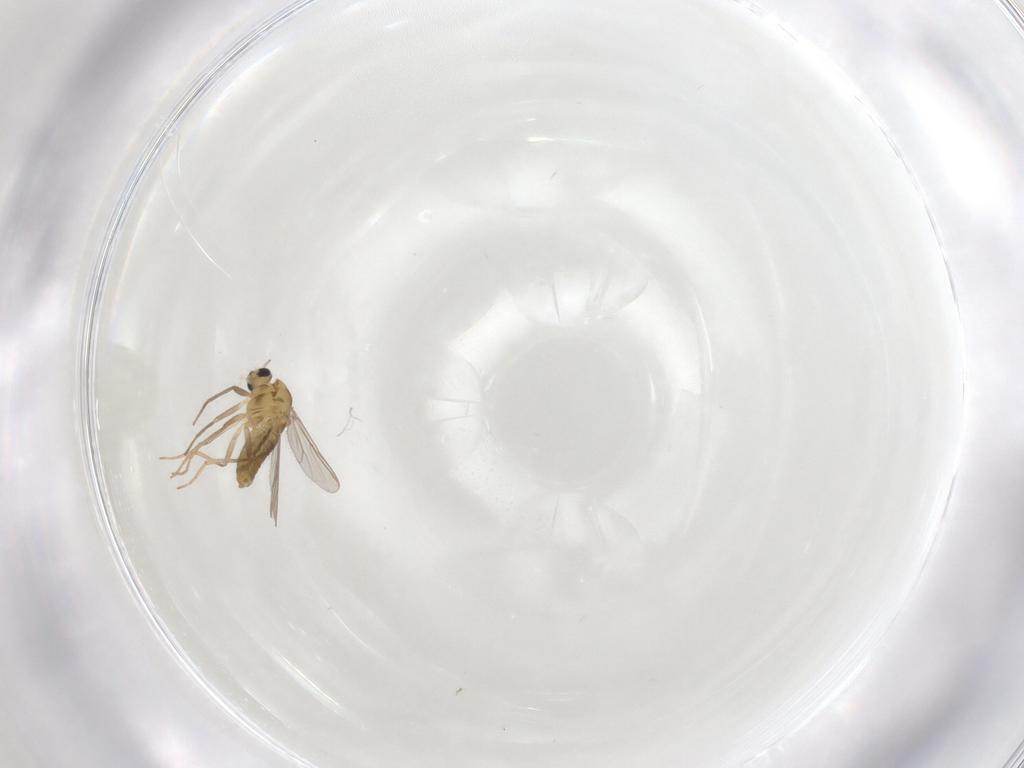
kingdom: Animalia
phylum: Arthropoda
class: Insecta
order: Diptera
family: Chironomidae
